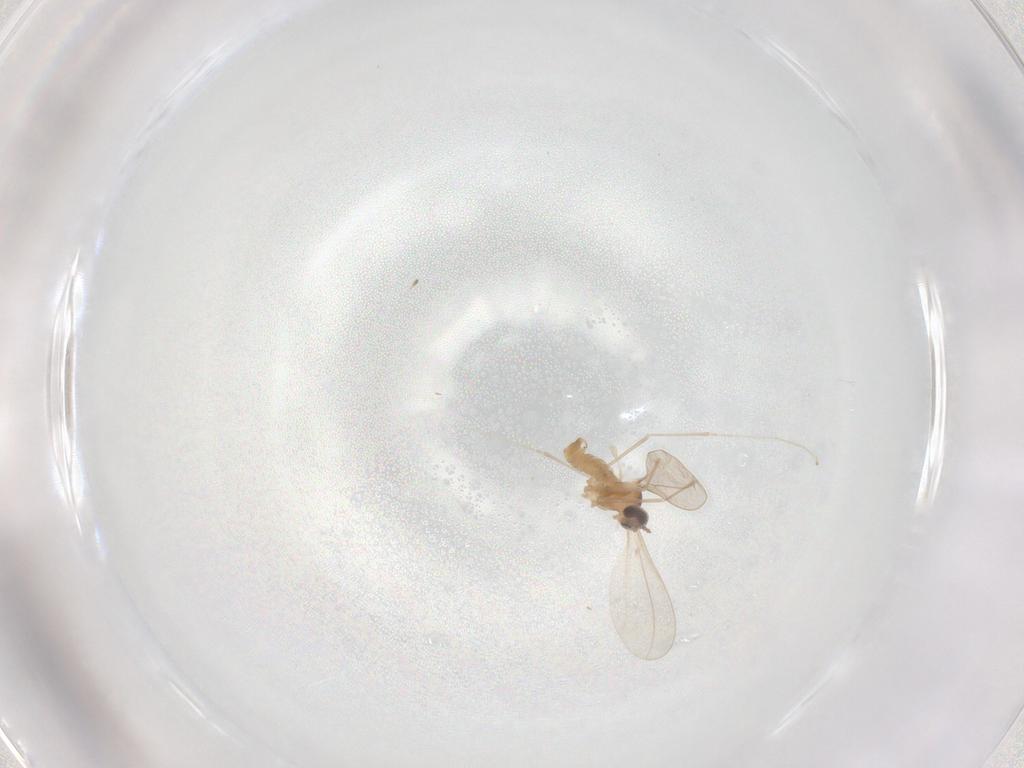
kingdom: Animalia
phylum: Arthropoda
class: Insecta
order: Diptera
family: Cecidomyiidae
